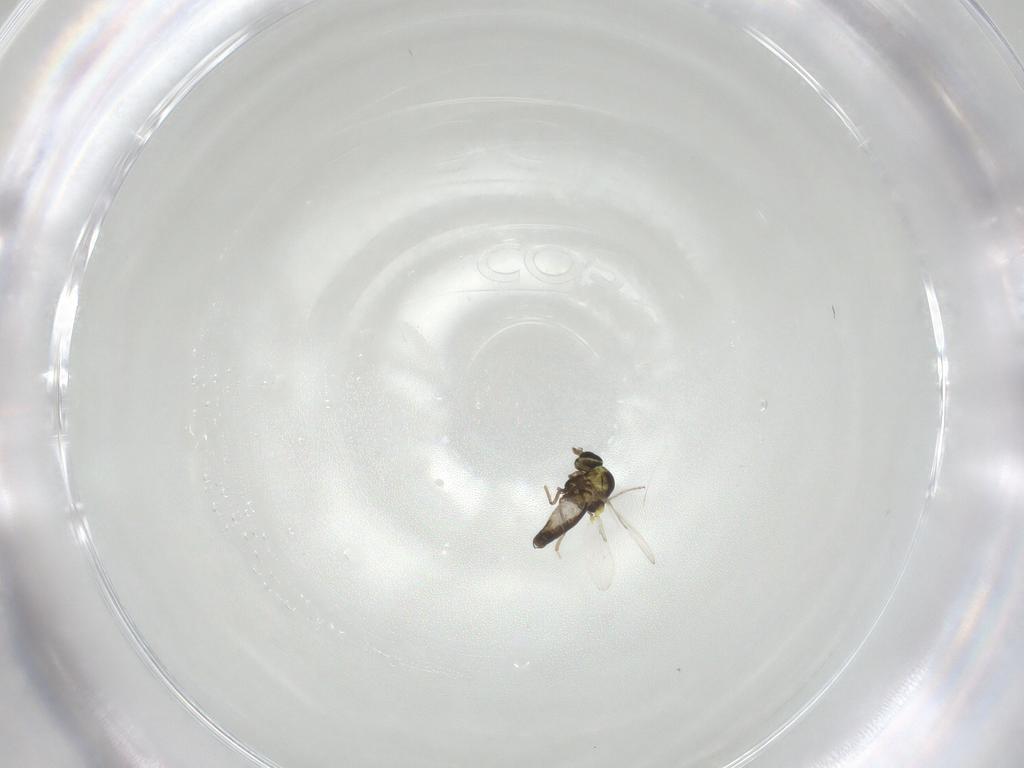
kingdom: Animalia
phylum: Arthropoda
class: Insecta
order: Diptera
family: Ceratopogonidae
